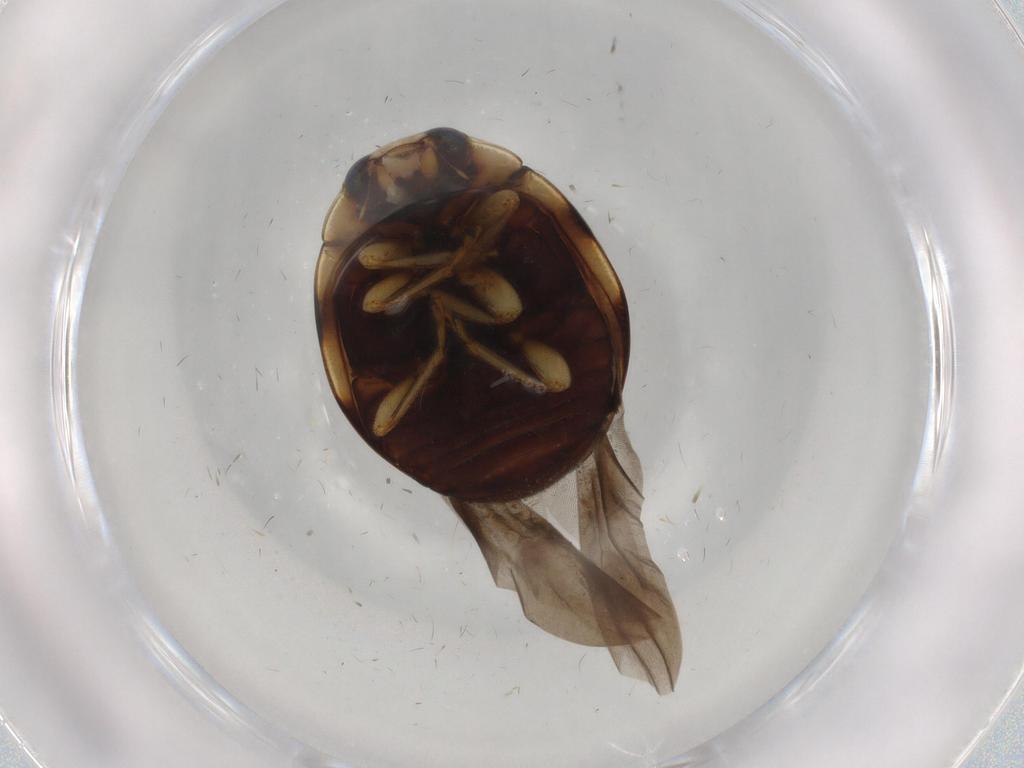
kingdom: Animalia
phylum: Arthropoda
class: Insecta
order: Coleoptera
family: Coccinellidae
